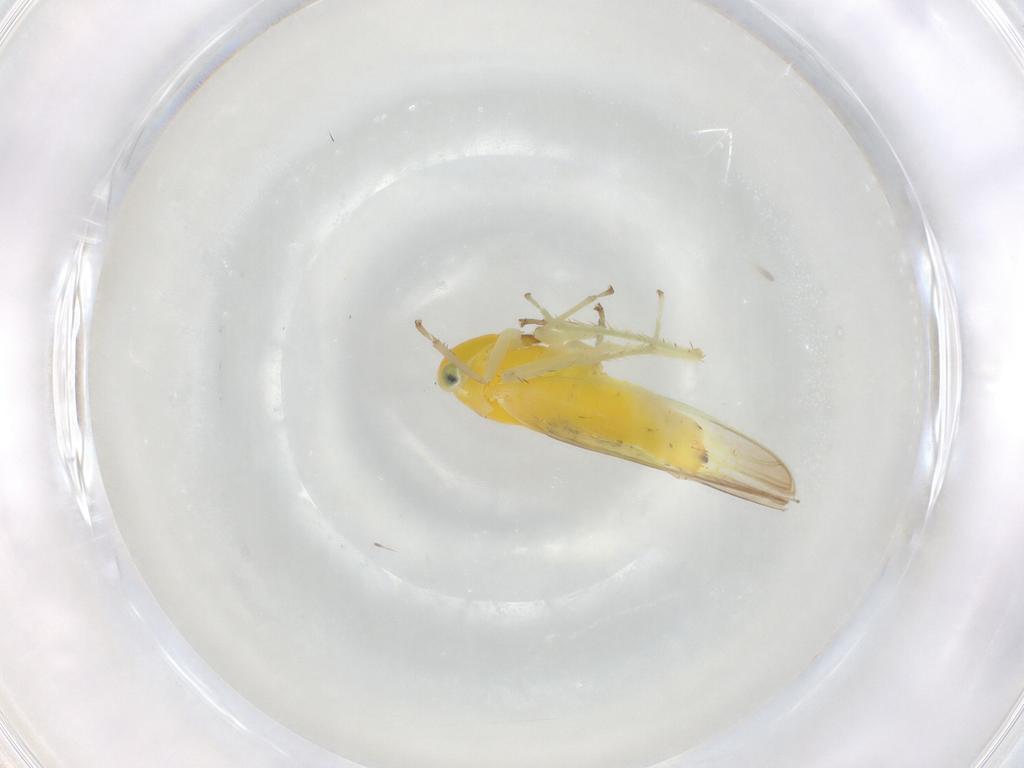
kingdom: Animalia
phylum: Arthropoda
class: Insecta
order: Hemiptera
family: Cicadellidae
